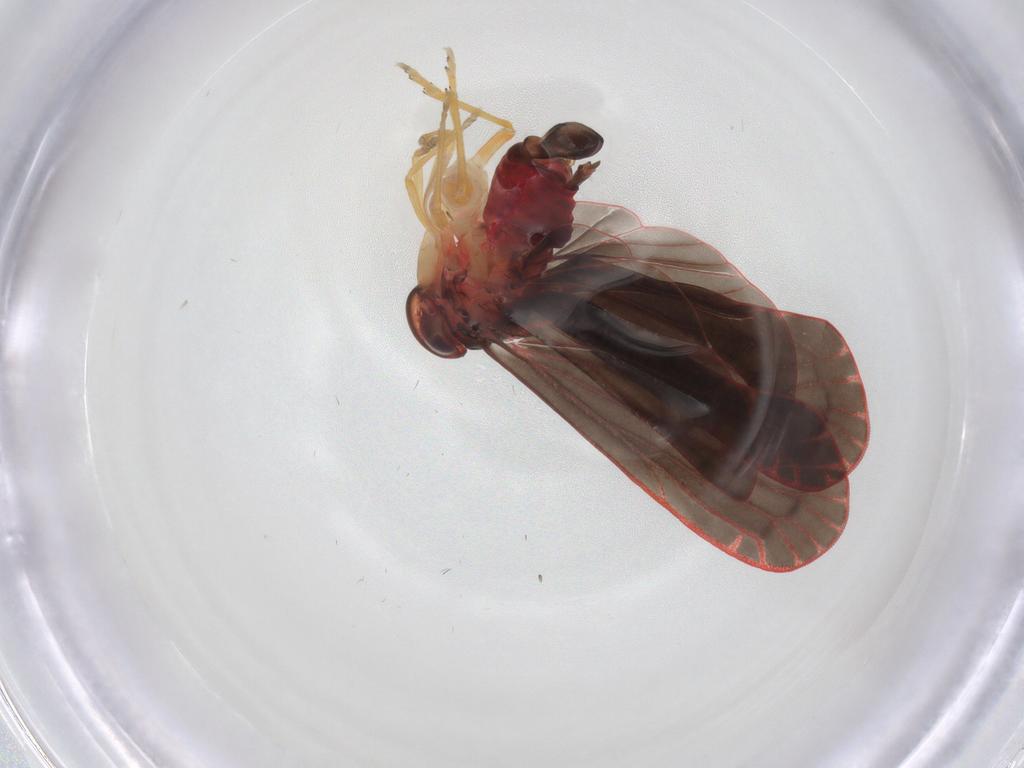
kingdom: Animalia
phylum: Arthropoda
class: Insecta
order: Hemiptera
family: Derbidae
